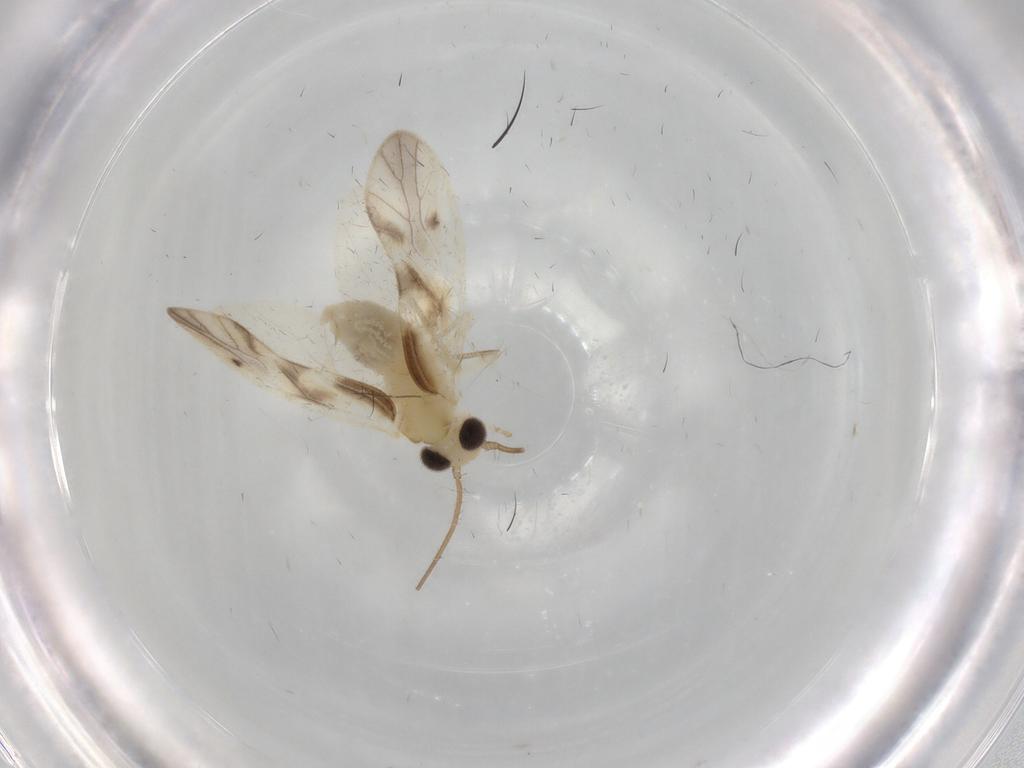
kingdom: Animalia
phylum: Arthropoda
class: Insecta
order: Psocodea
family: Caeciliusidae
